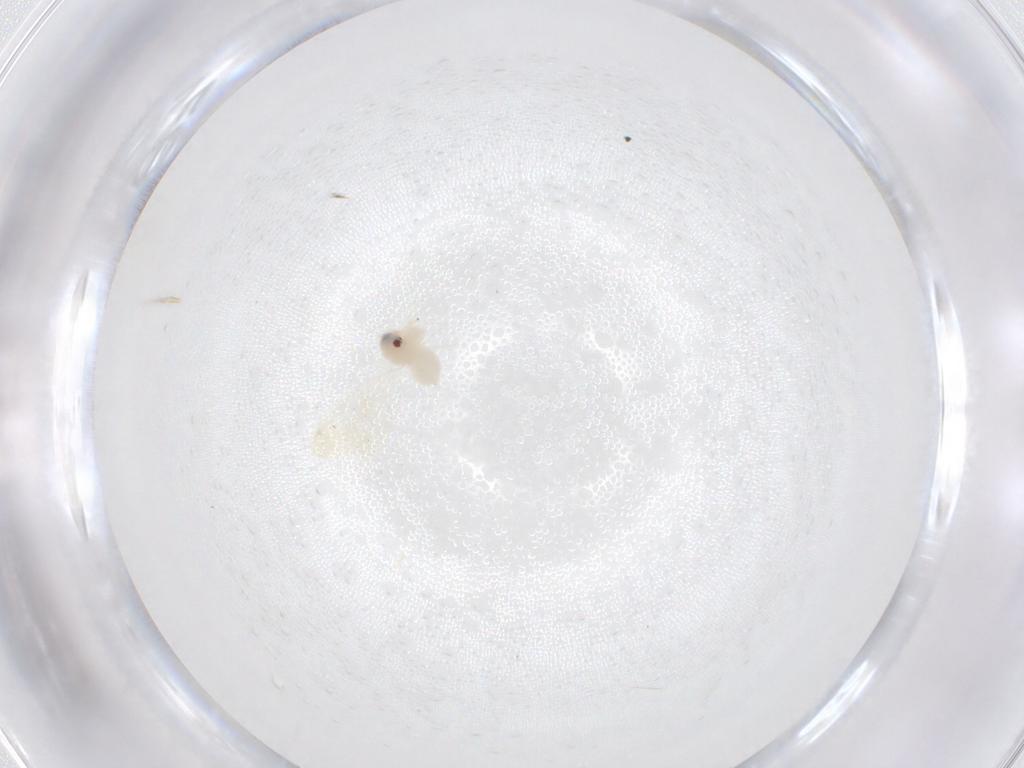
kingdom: Animalia
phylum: Arthropoda
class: Insecta
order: Hemiptera
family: Aleyrodidae
